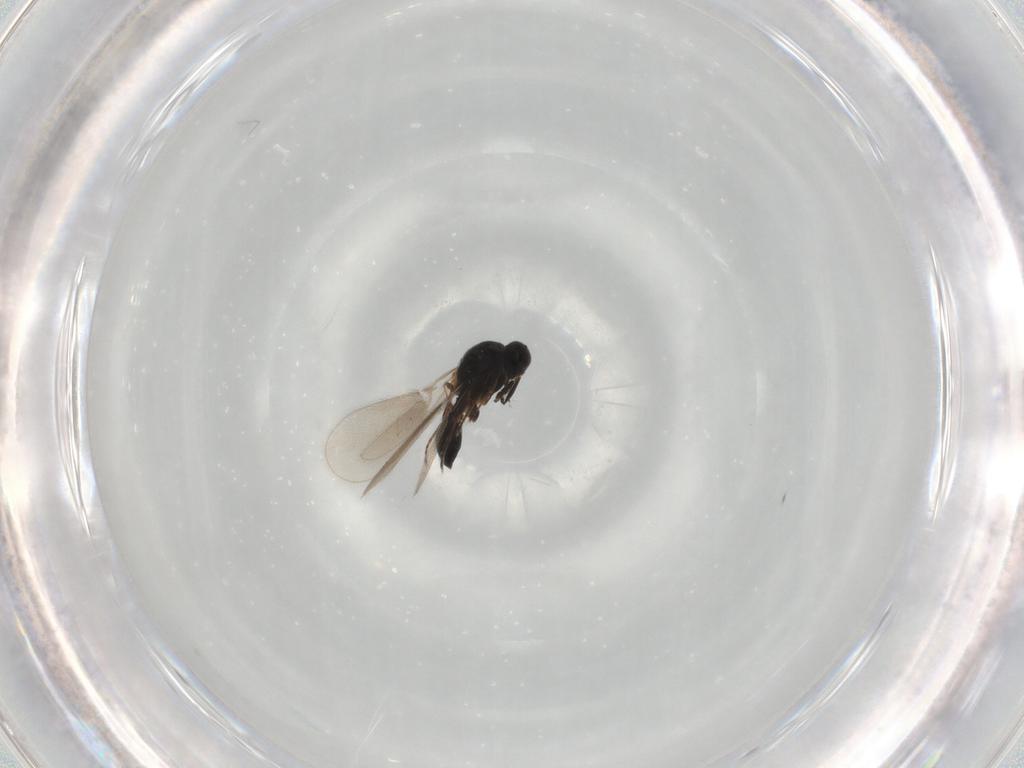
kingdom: Animalia
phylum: Arthropoda
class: Insecta
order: Hymenoptera
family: Platygastridae
